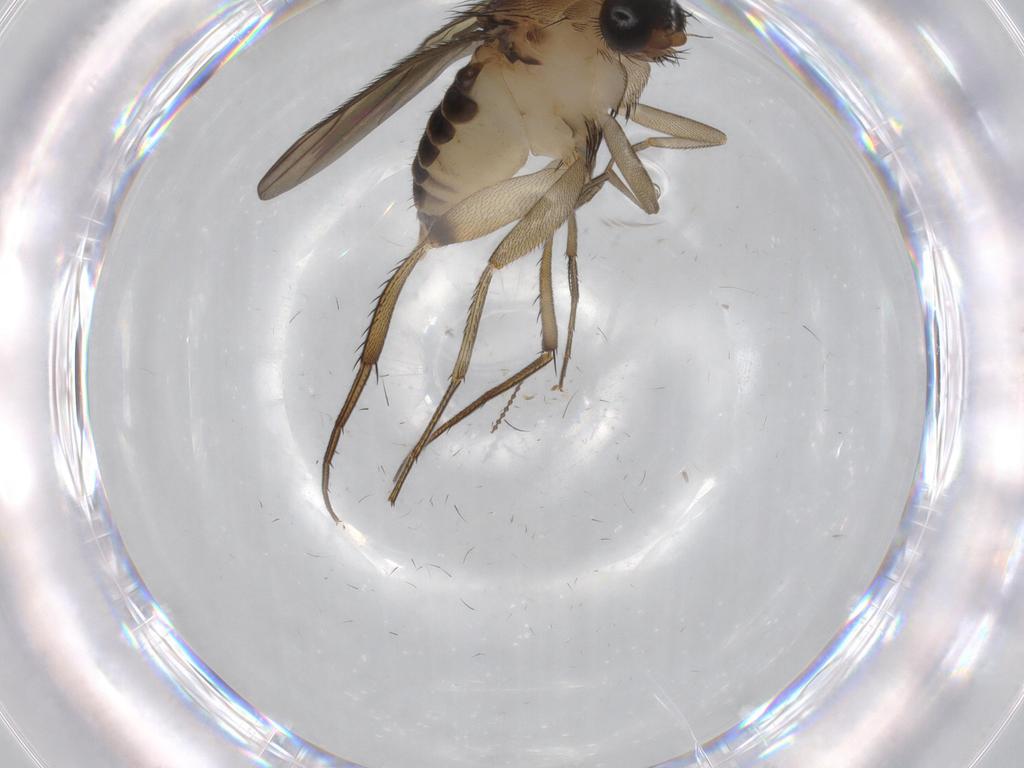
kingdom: Animalia
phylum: Arthropoda
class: Insecta
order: Diptera
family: Phoridae
